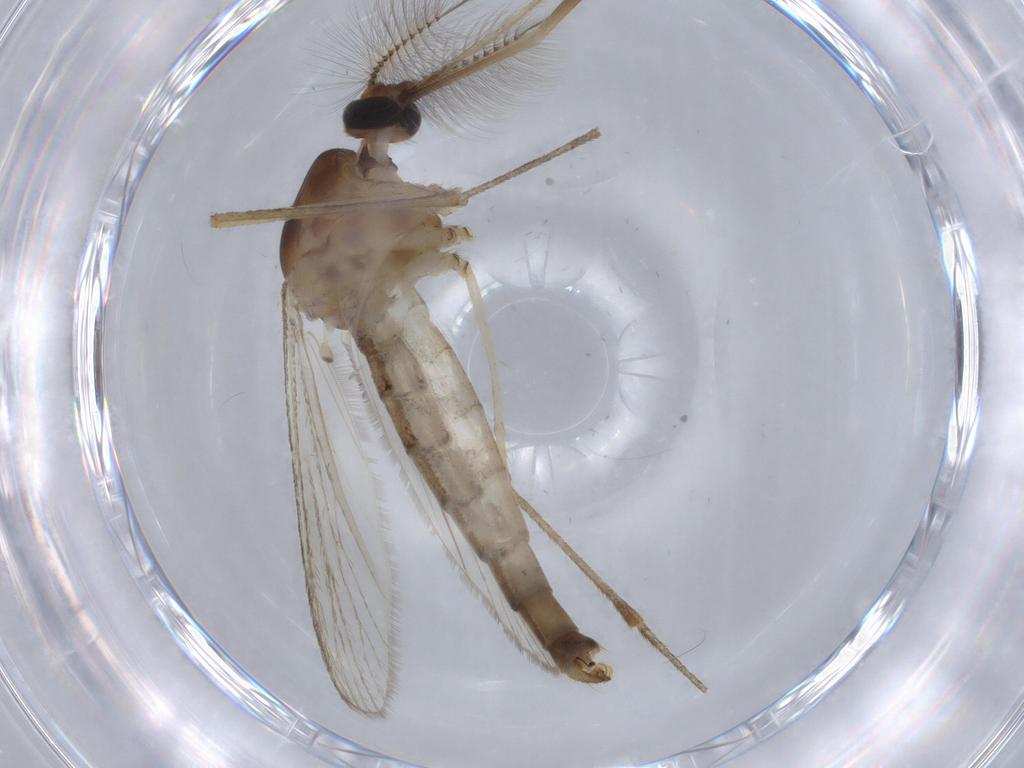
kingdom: Animalia
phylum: Arthropoda
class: Insecta
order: Diptera
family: Culicidae
